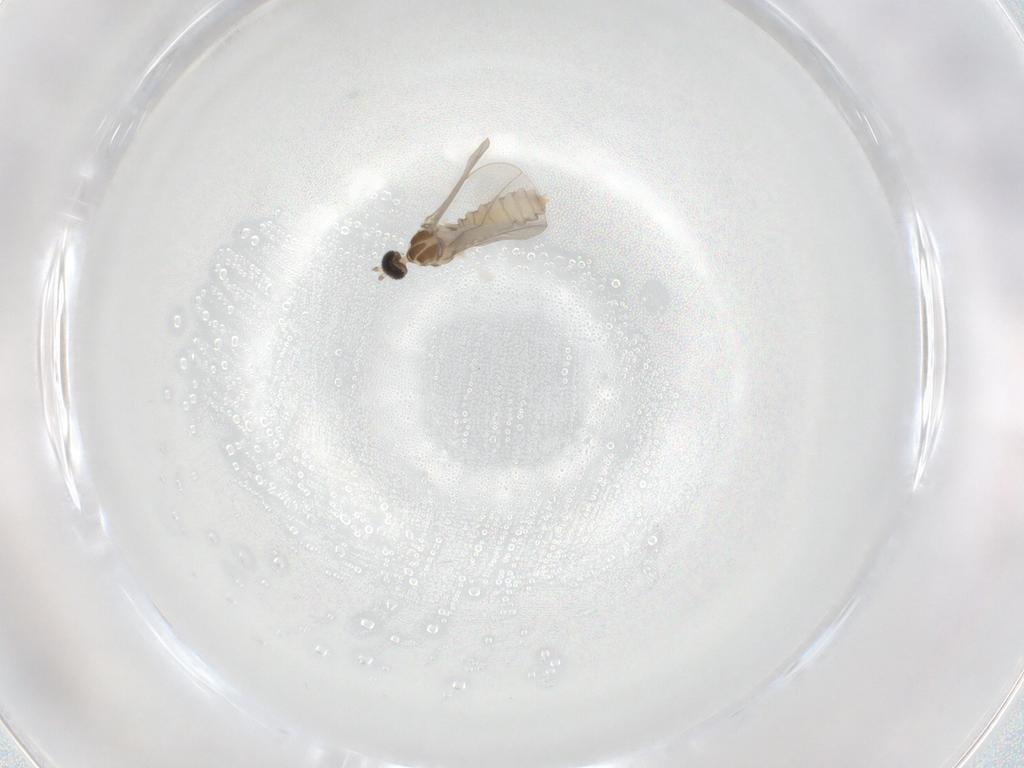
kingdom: Animalia
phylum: Arthropoda
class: Insecta
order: Diptera
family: Cecidomyiidae
